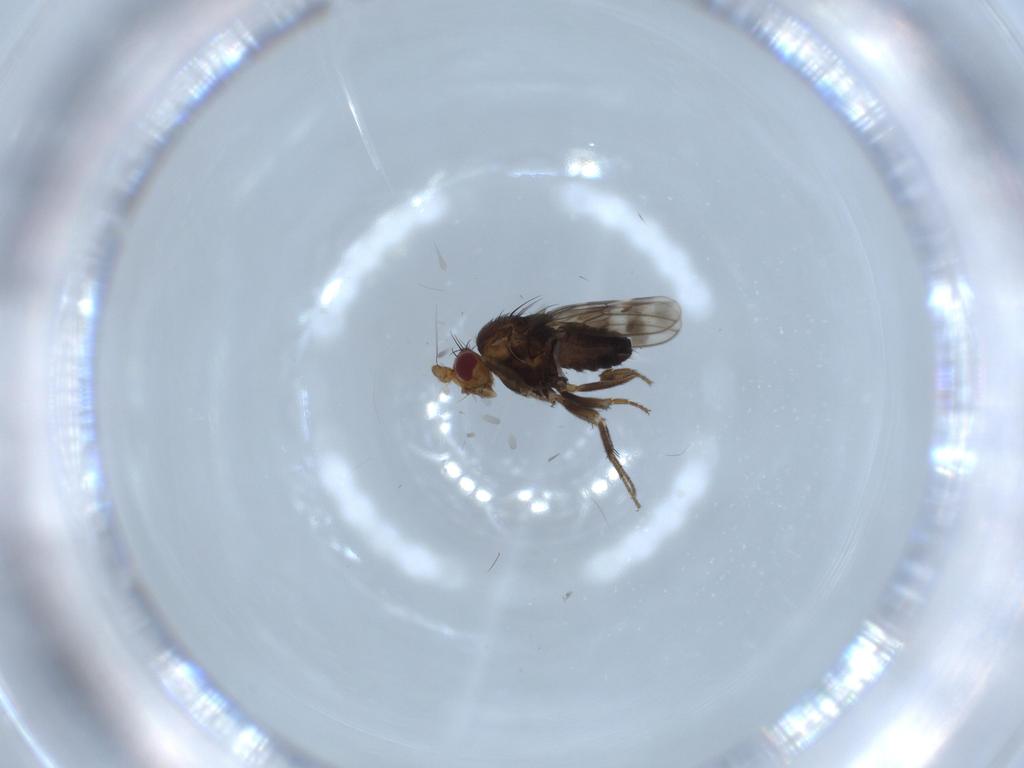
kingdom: Animalia
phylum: Arthropoda
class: Insecta
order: Diptera
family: Sphaeroceridae
